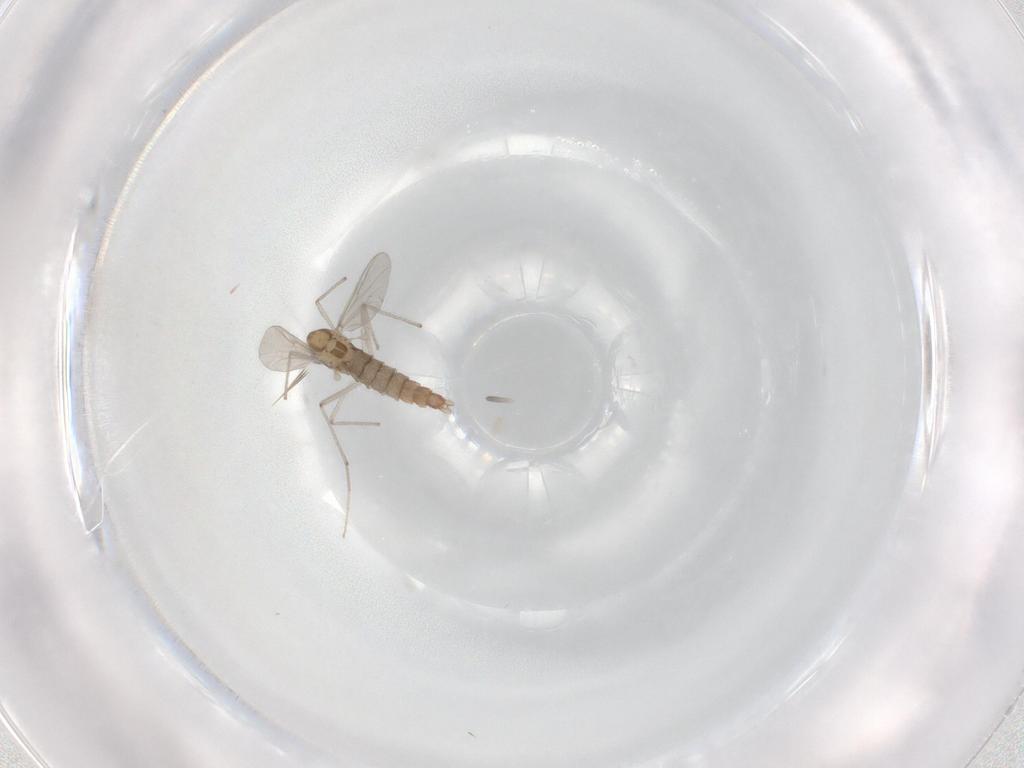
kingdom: Animalia
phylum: Arthropoda
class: Insecta
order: Diptera
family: Chironomidae
